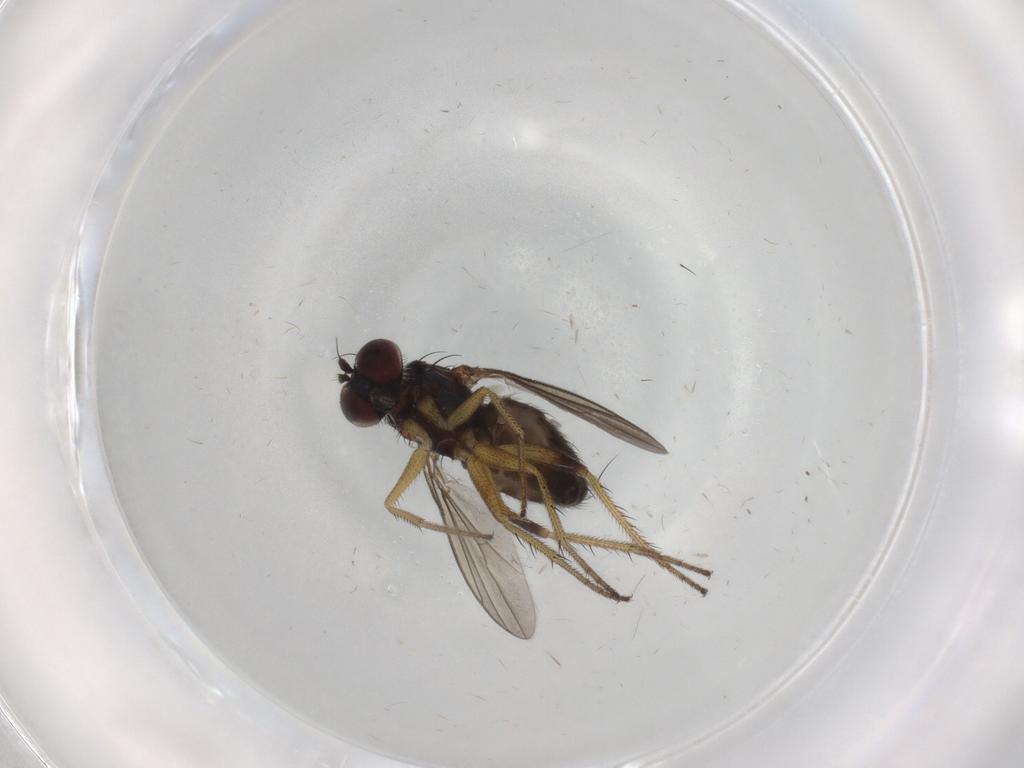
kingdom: Animalia
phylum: Arthropoda
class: Insecta
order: Diptera
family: Dolichopodidae
